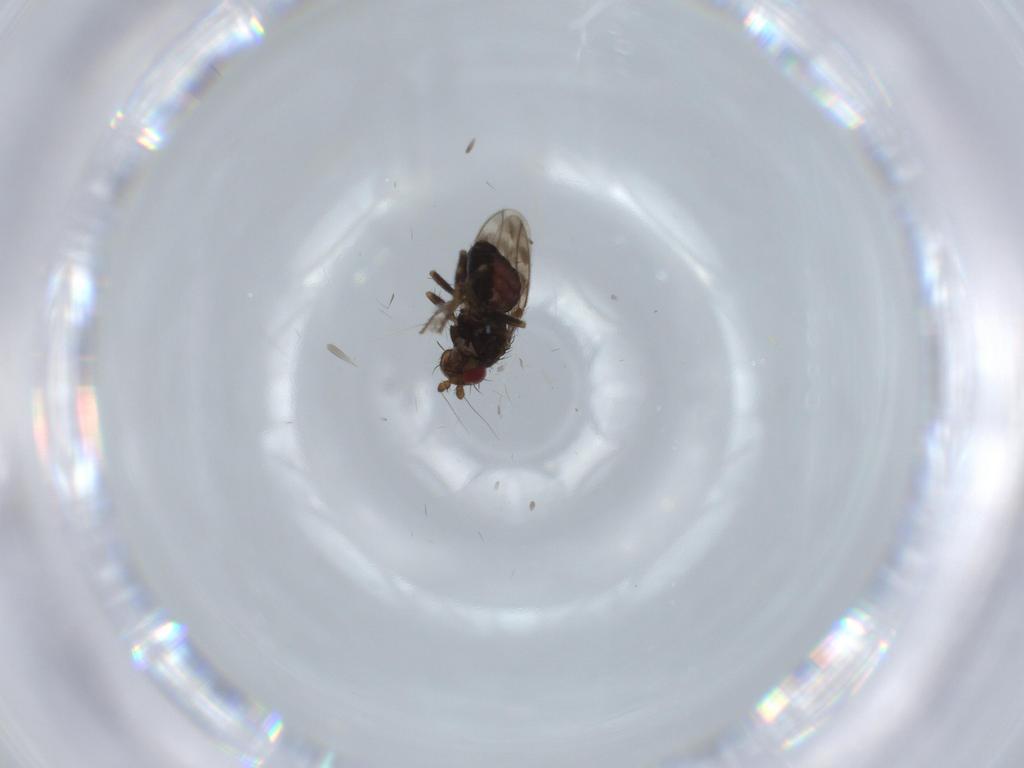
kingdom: Animalia
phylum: Arthropoda
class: Insecta
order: Diptera
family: Sphaeroceridae
